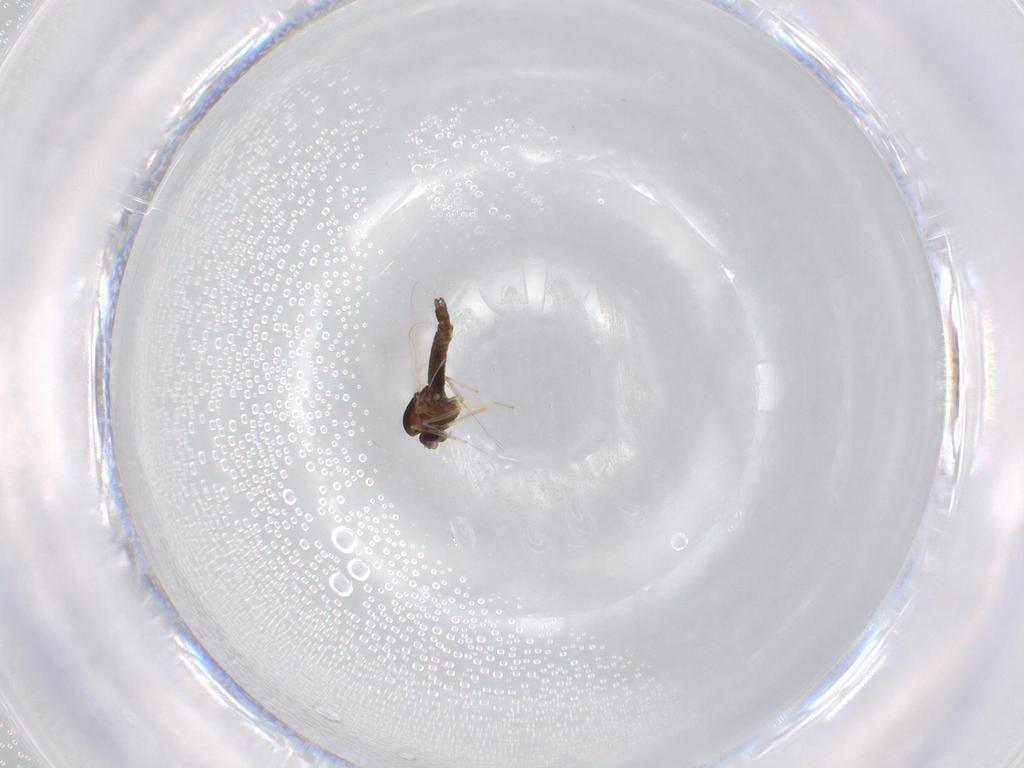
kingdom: Animalia
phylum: Arthropoda
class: Insecta
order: Diptera
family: Chironomidae
